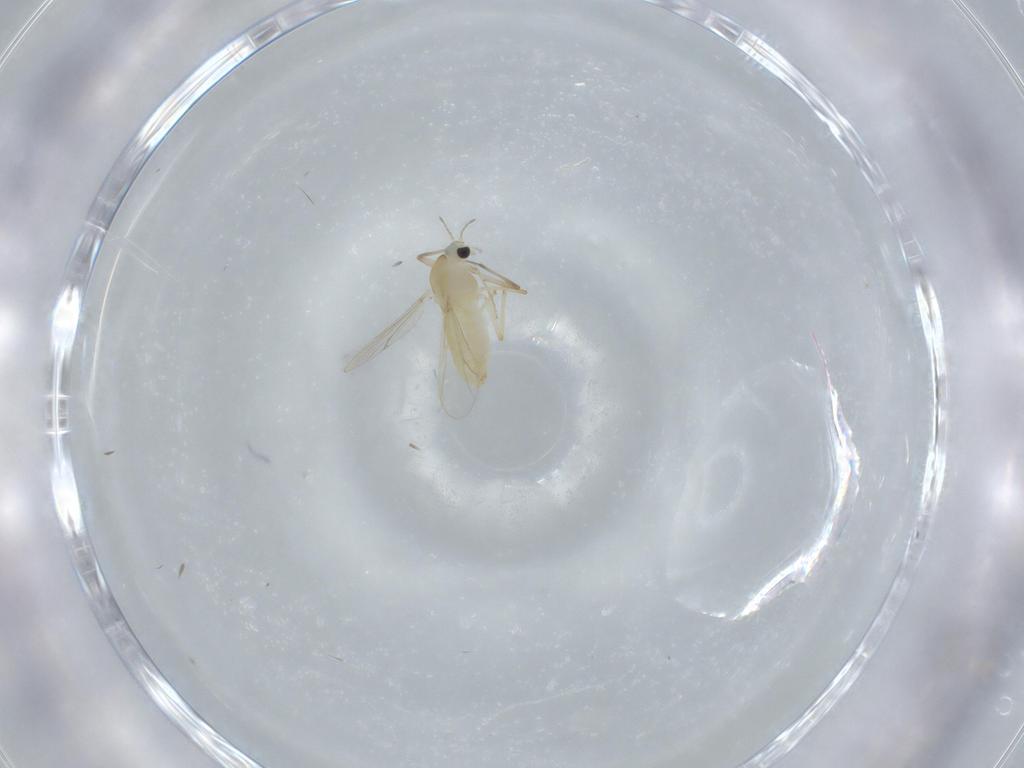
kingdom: Animalia
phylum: Arthropoda
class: Insecta
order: Diptera
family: Chironomidae
